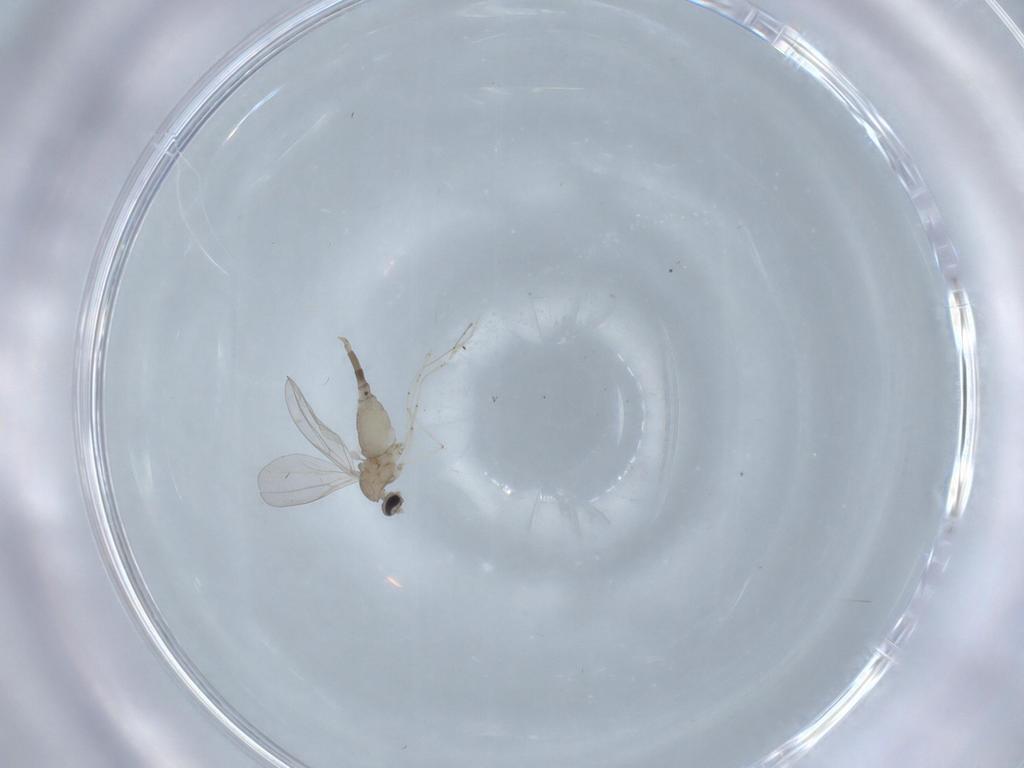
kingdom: Animalia
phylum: Arthropoda
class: Insecta
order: Diptera
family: Cecidomyiidae
